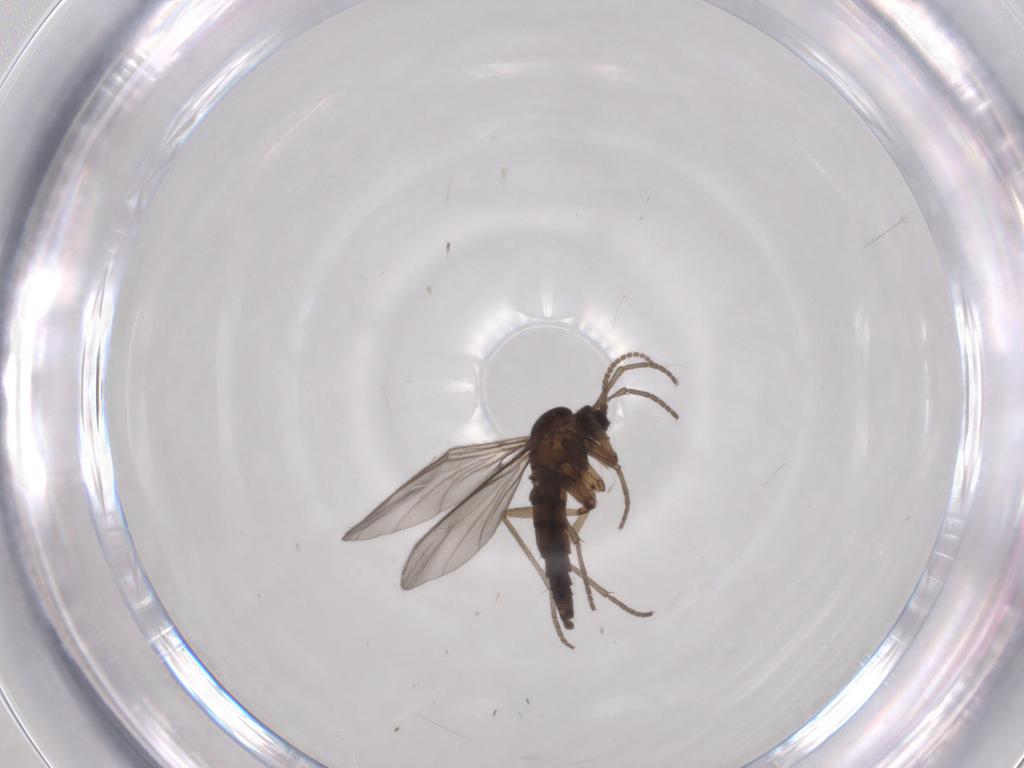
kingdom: Animalia
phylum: Arthropoda
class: Insecta
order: Diptera
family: Sciaridae
